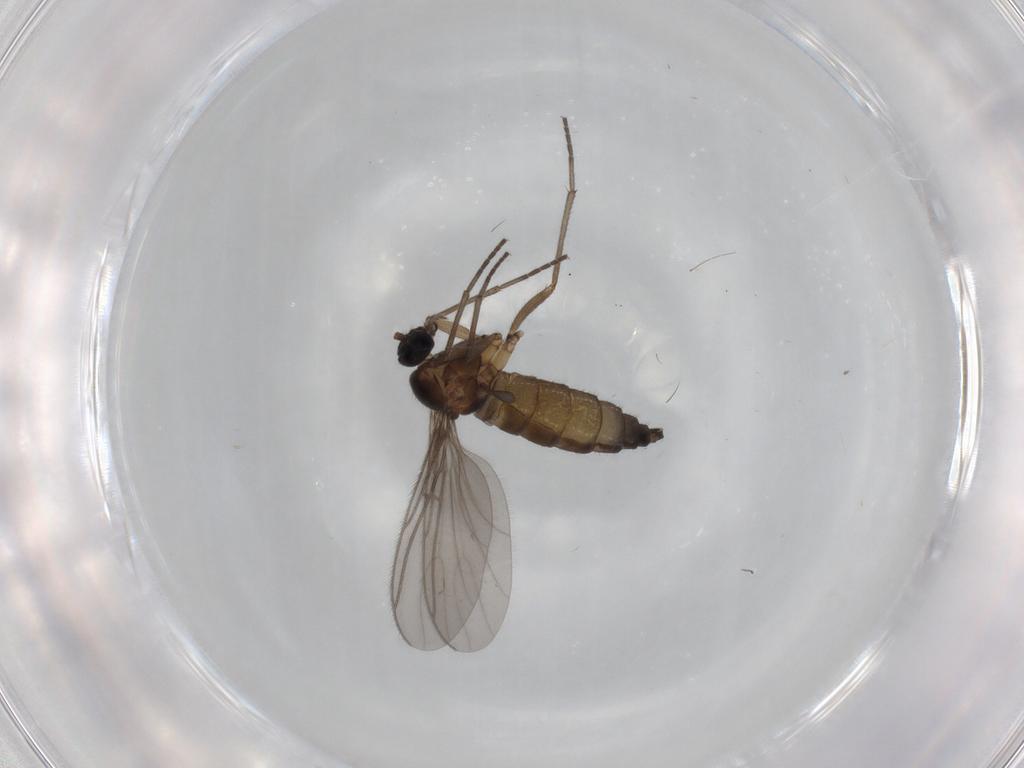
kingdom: Animalia
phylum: Arthropoda
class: Insecta
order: Diptera
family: Sciaridae
